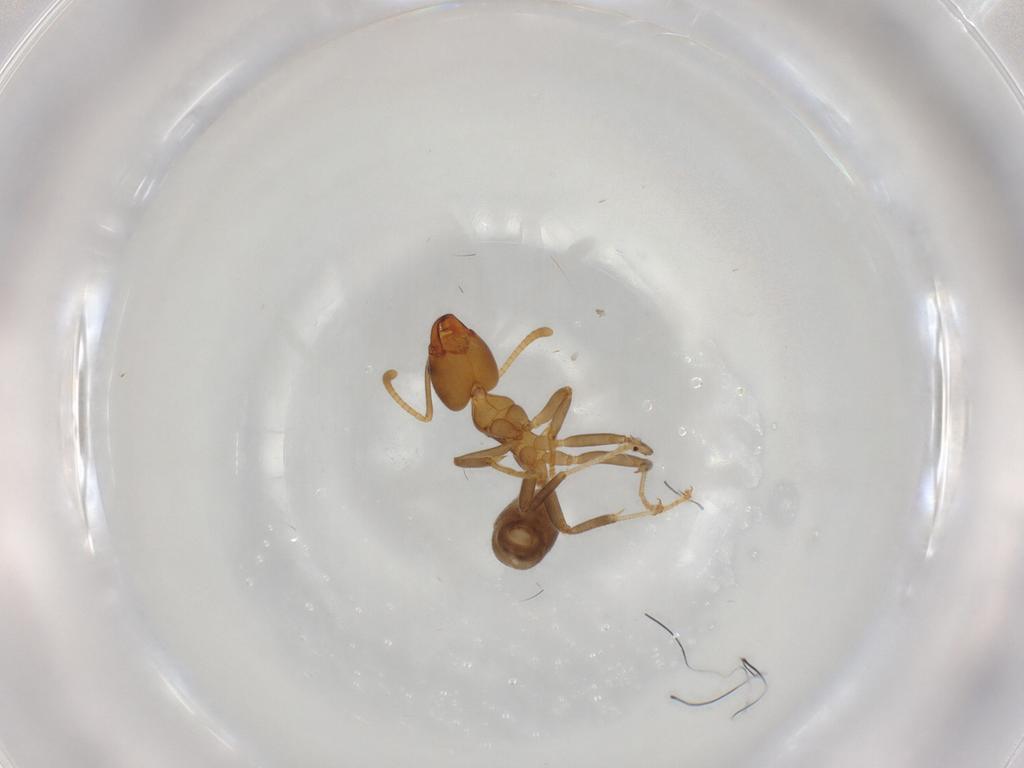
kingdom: Animalia
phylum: Arthropoda
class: Insecta
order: Hymenoptera
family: Formicidae
